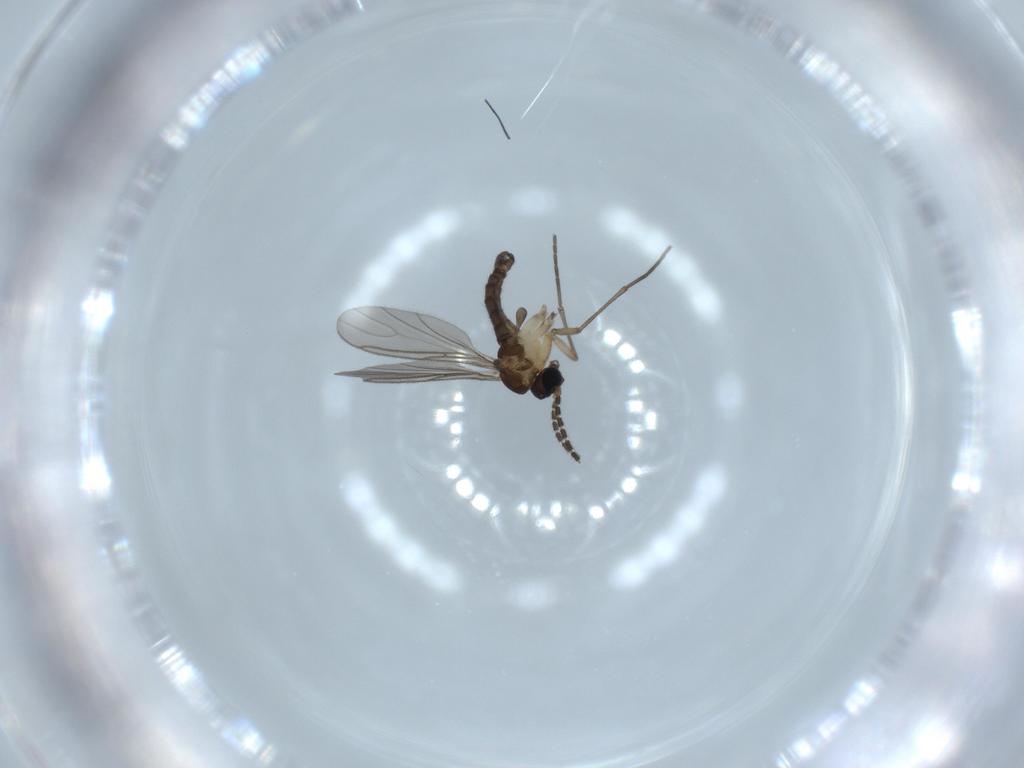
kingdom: Animalia
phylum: Arthropoda
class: Insecta
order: Diptera
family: Sciaridae
